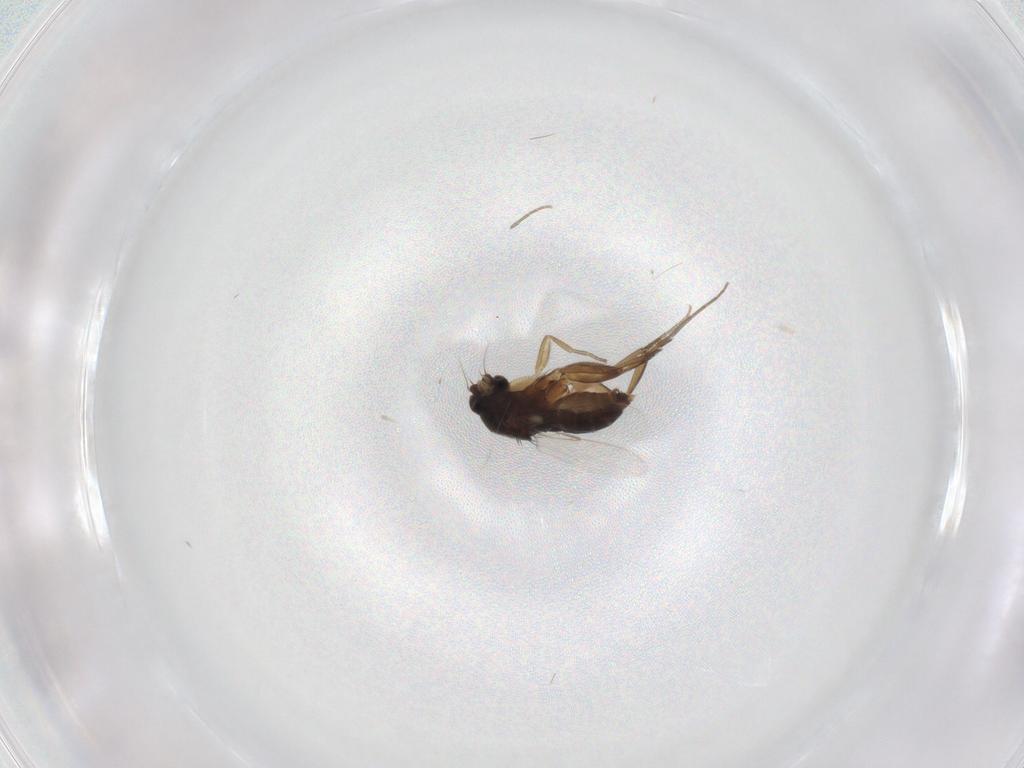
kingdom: Animalia
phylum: Arthropoda
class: Insecta
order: Diptera
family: Phoridae
